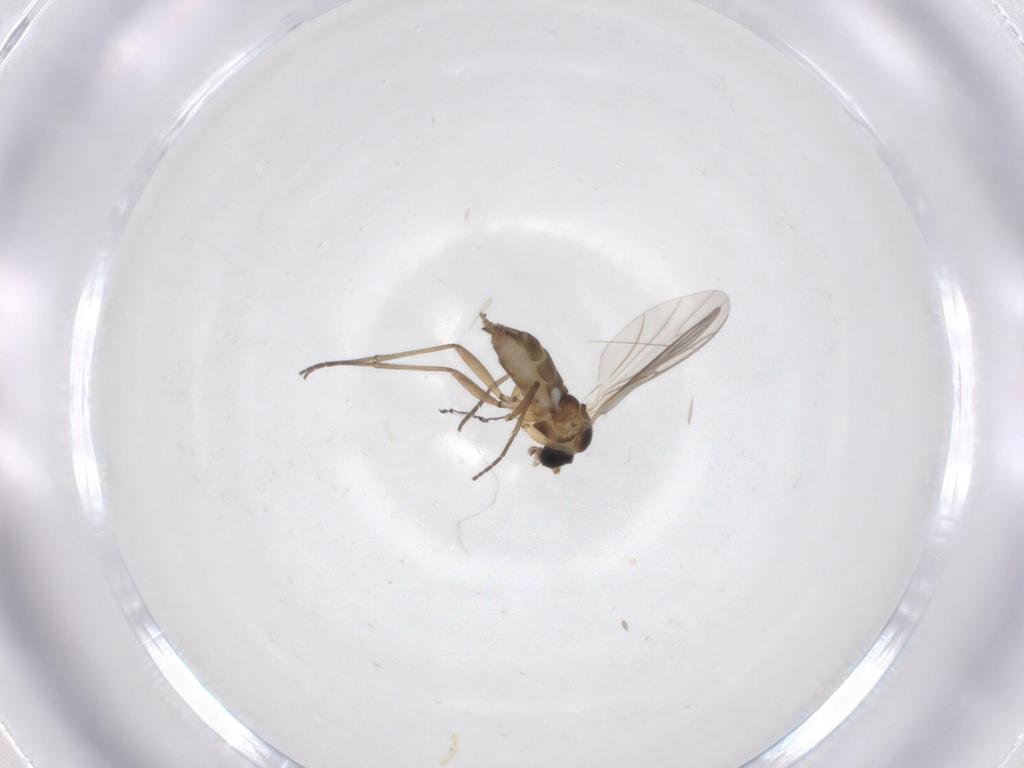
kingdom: Animalia
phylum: Arthropoda
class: Insecta
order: Diptera
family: Sciaridae
